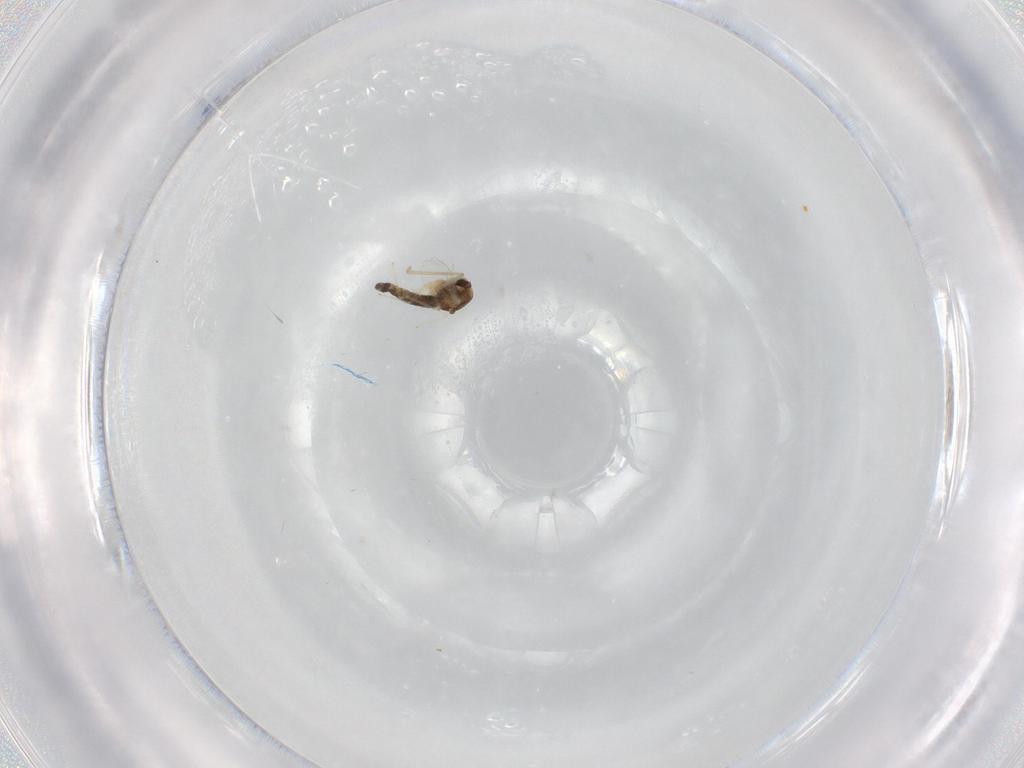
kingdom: Animalia
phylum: Arthropoda
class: Insecta
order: Diptera
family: Chironomidae
